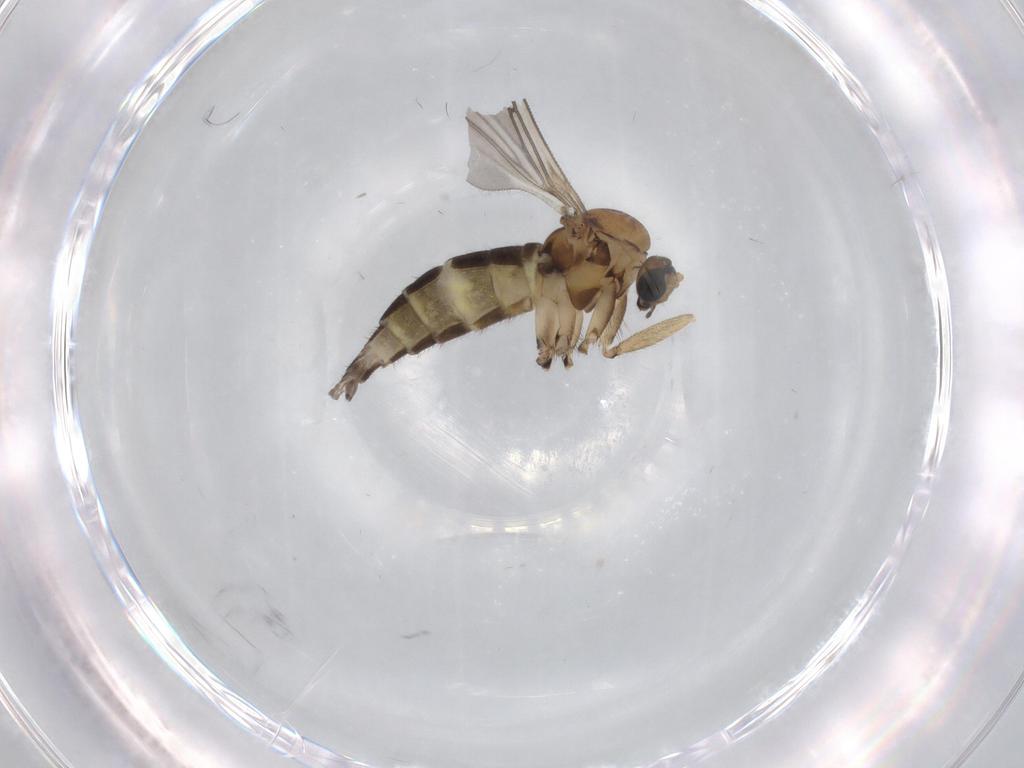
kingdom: Animalia
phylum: Arthropoda
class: Insecta
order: Diptera
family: Sciaridae
